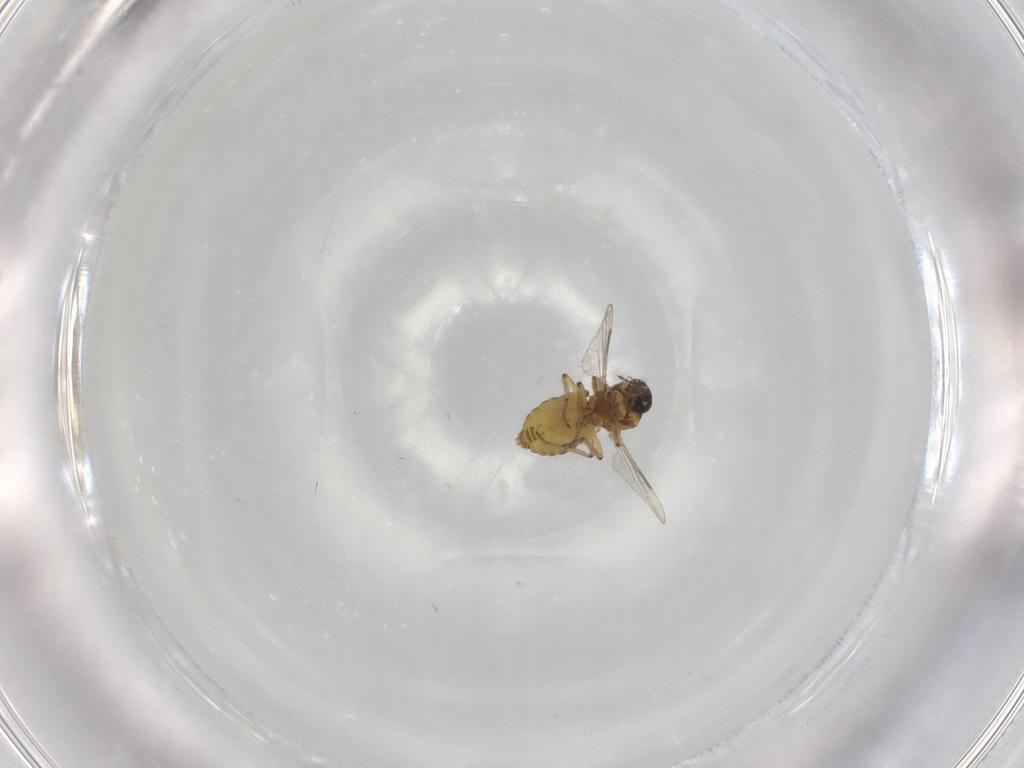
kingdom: Animalia
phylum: Arthropoda
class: Insecta
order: Diptera
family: Ceratopogonidae
